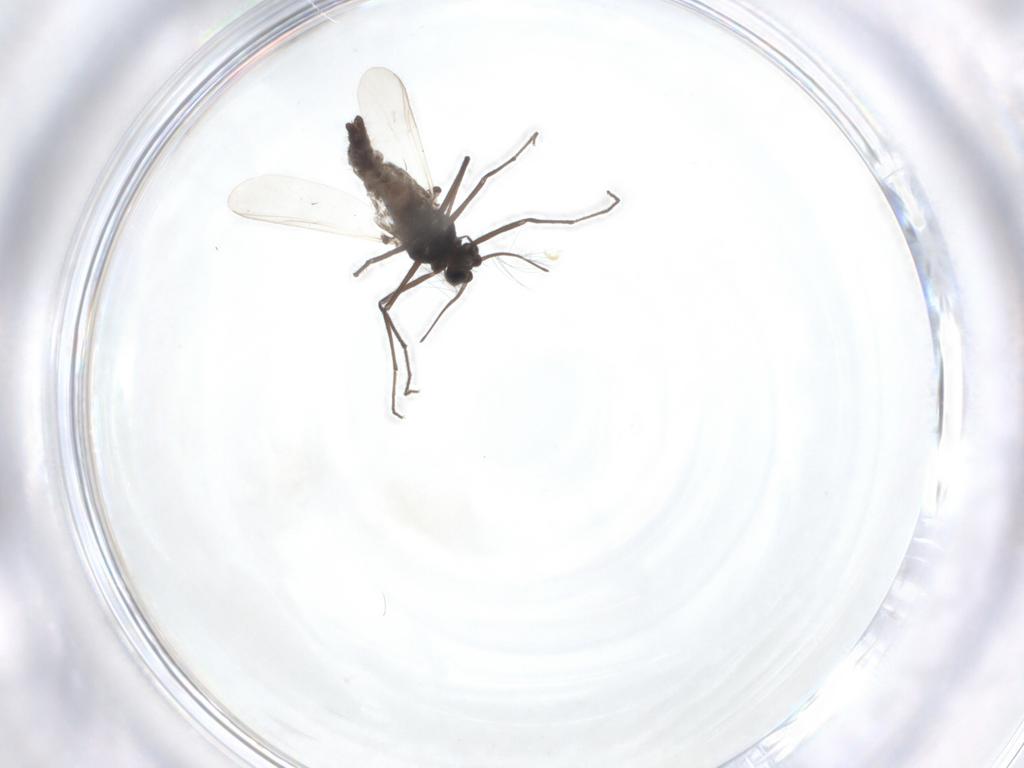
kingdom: Animalia
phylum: Arthropoda
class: Insecta
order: Diptera
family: Chironomidae
